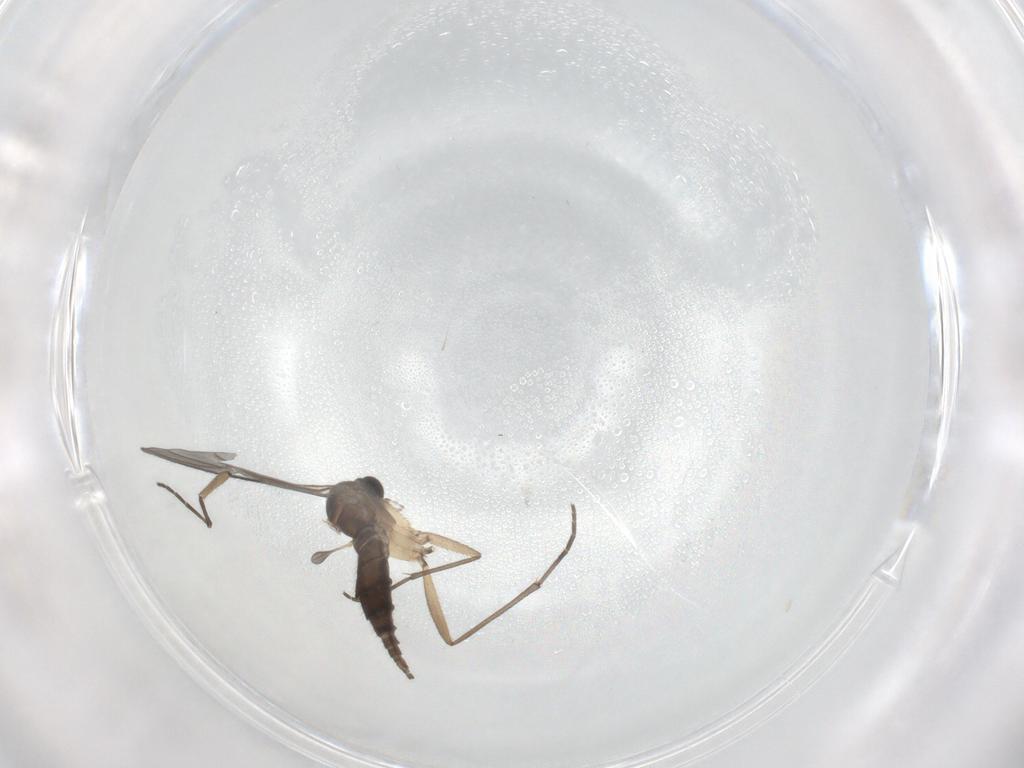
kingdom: Animalia
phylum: Arthropoda
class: Insecta
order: Diptera
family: Sciaridae
